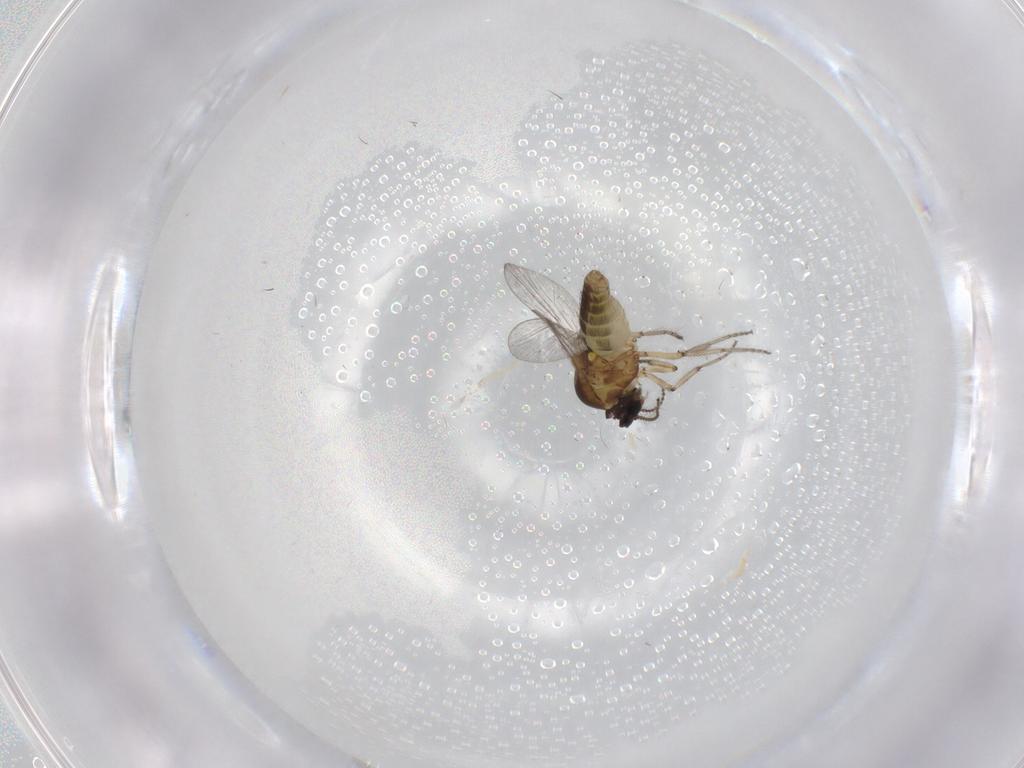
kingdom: Animalia
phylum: Arthropoda
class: Insecta
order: Diptera
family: Ceratopogonidae
